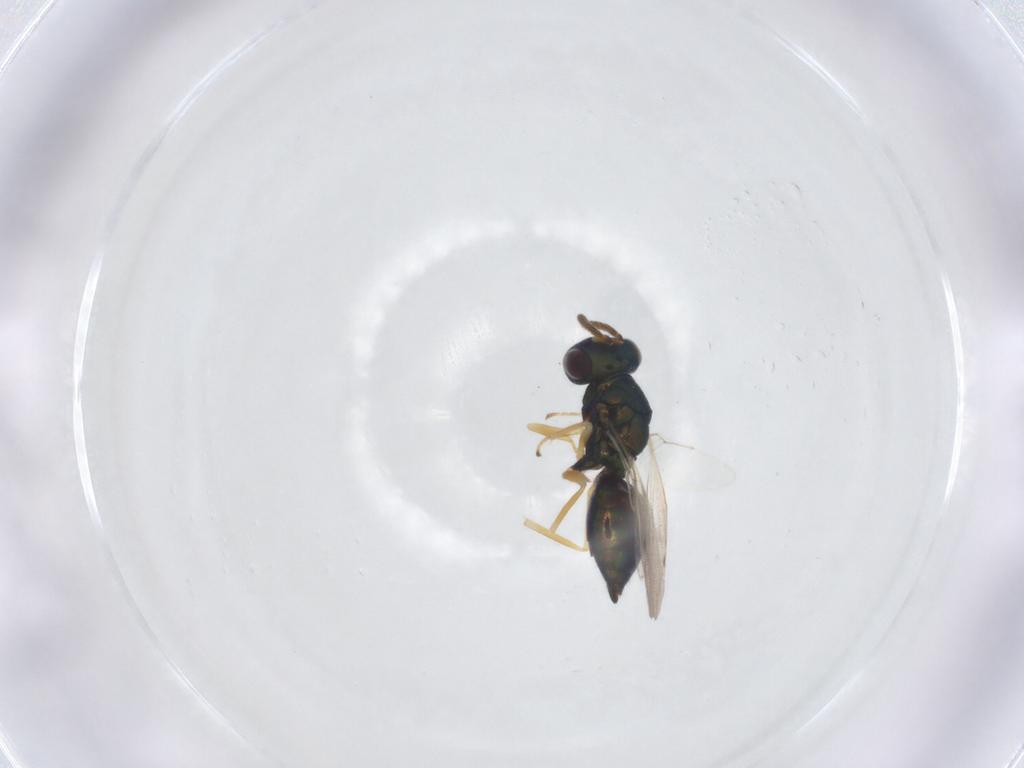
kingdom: Animalia
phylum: Arthropoda
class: Insecta
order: Hymenoptera
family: Pteromalidae
